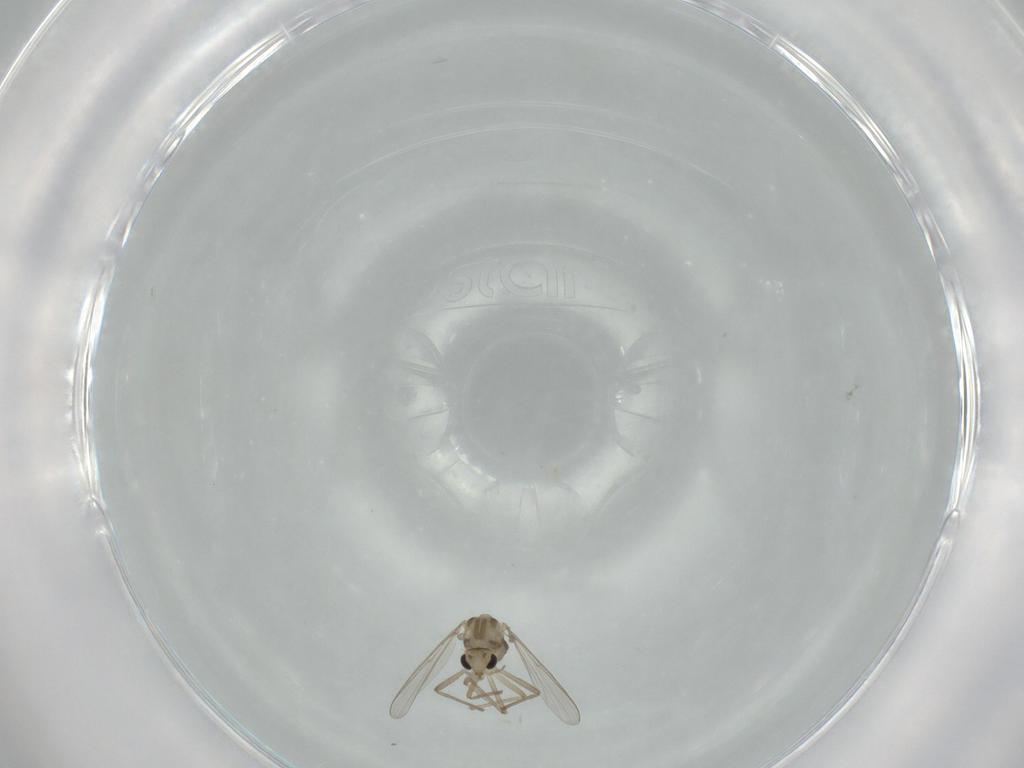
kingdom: Animalia
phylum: Arthropoda
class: Insecta
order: Diptera
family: Chironomidae
